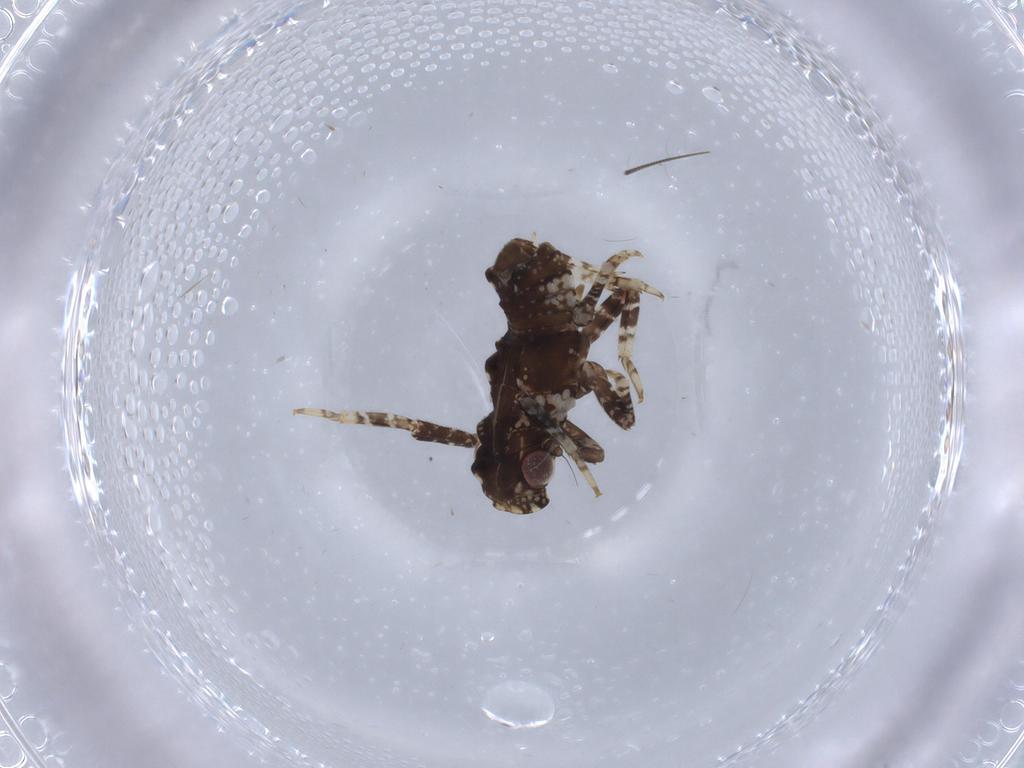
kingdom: Animalia
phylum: Arthropoda
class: Insecta
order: Hemiptera
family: Fulgoridae
